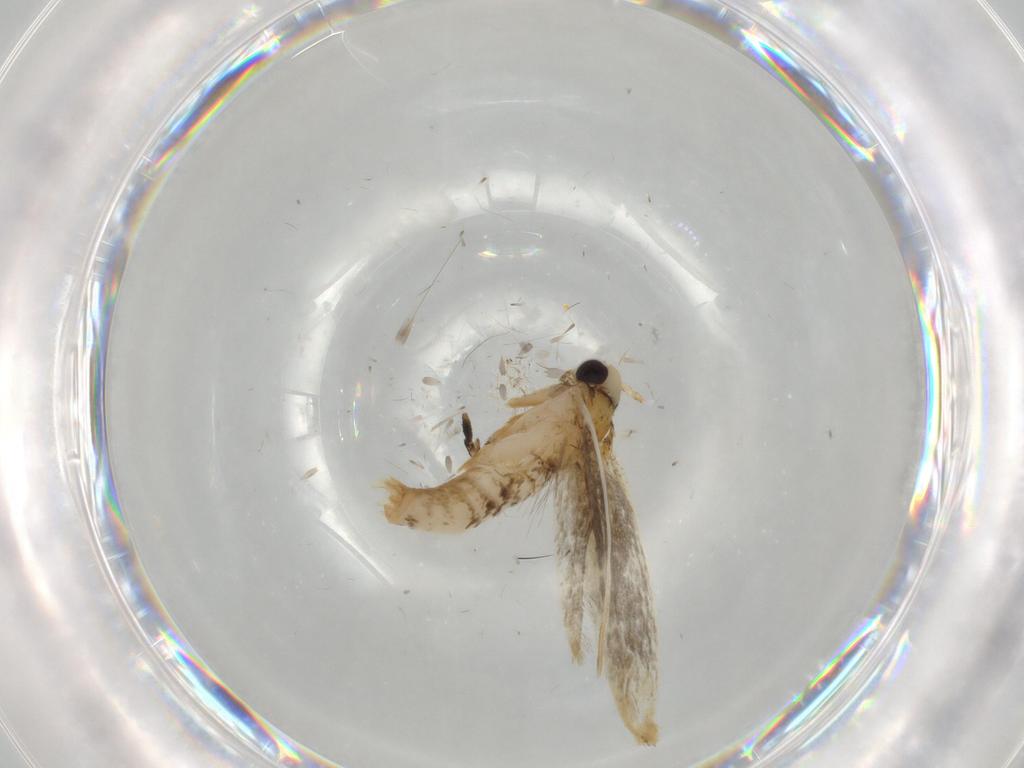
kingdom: Animalia
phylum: Arthropoda
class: Insecta
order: Lepidoptera
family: Tineidae
